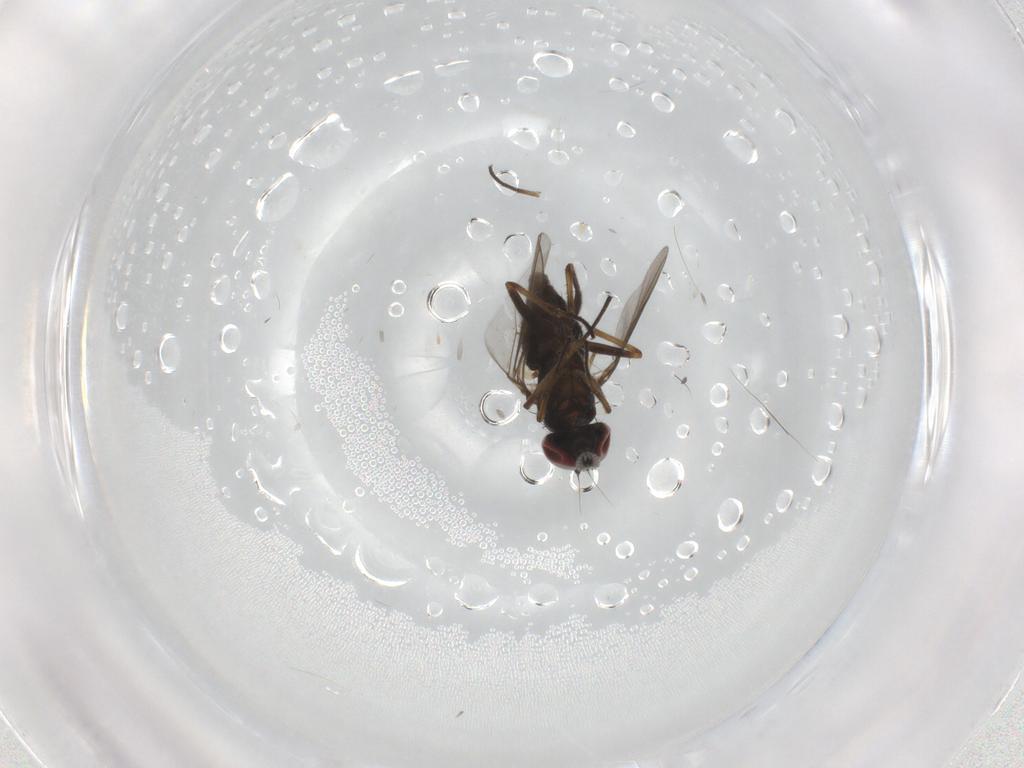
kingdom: Animalia
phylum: Arthropoda
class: Insecta
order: Diptera
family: Dolichopodidae
